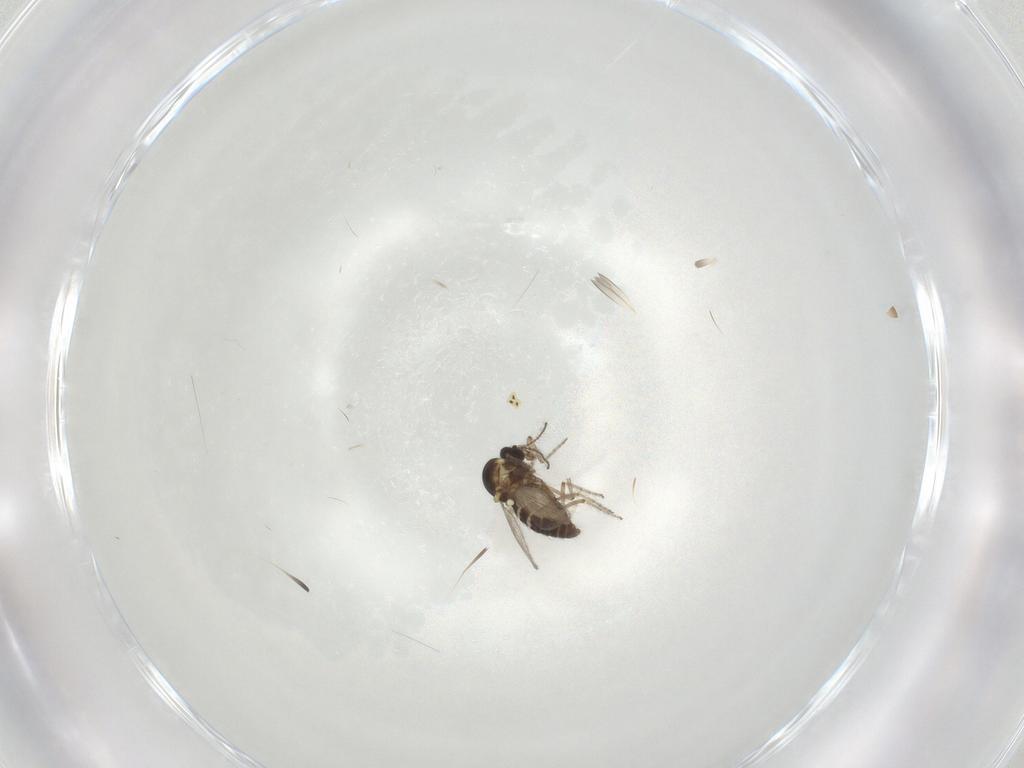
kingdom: Animalia
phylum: Arthropoda
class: Insecta
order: Diptera
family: Ceratopogonidae
